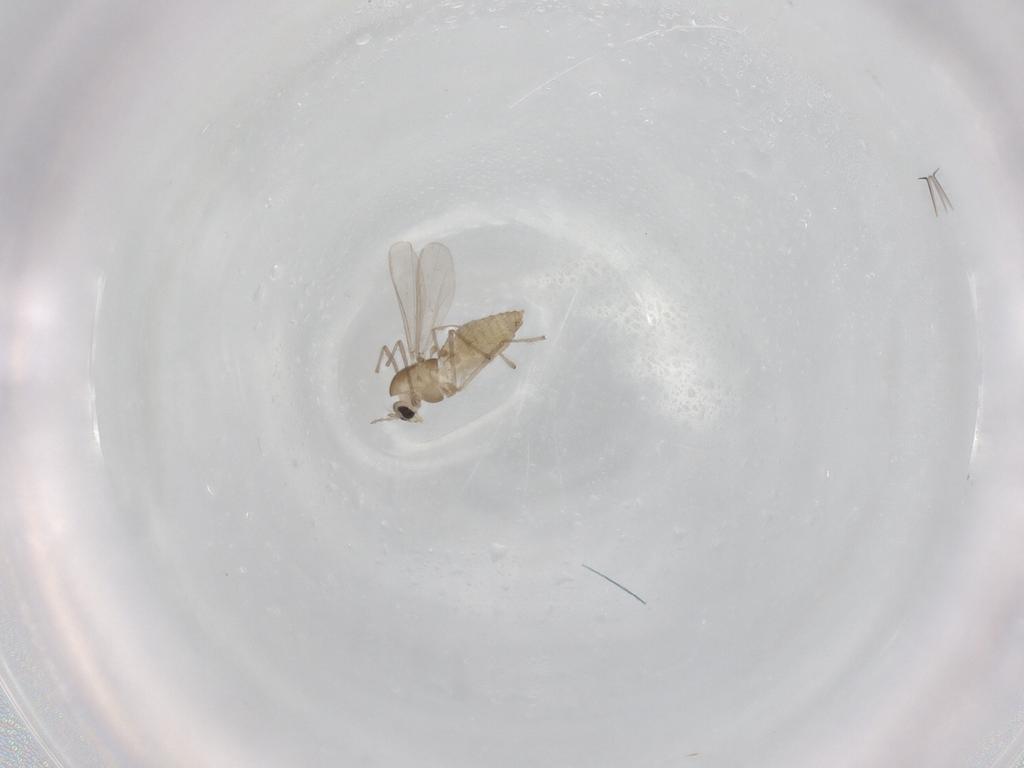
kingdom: Animalia
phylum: Arthropoda
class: Insecta
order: Diptera
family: Chironomidae
